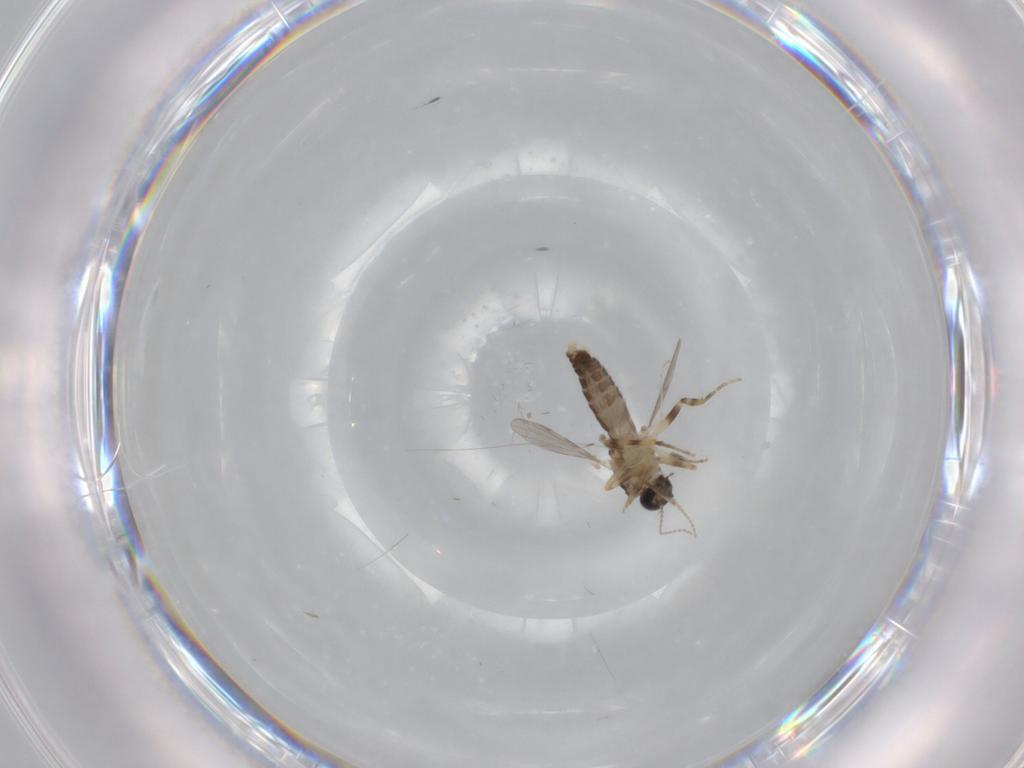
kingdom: Animalia
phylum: Arthropoda
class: Insecta
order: Diptera
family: Ceratopogonidae
